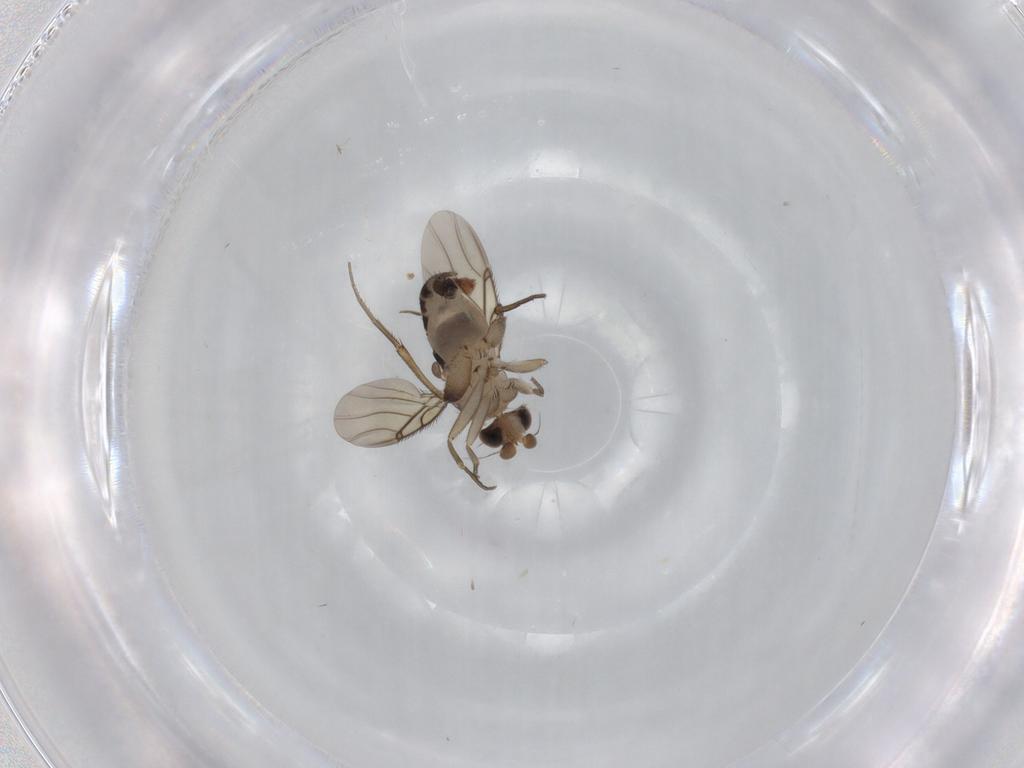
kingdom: Animalia
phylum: Arthropoda
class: Insecta
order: Diptera
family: Phoridae
